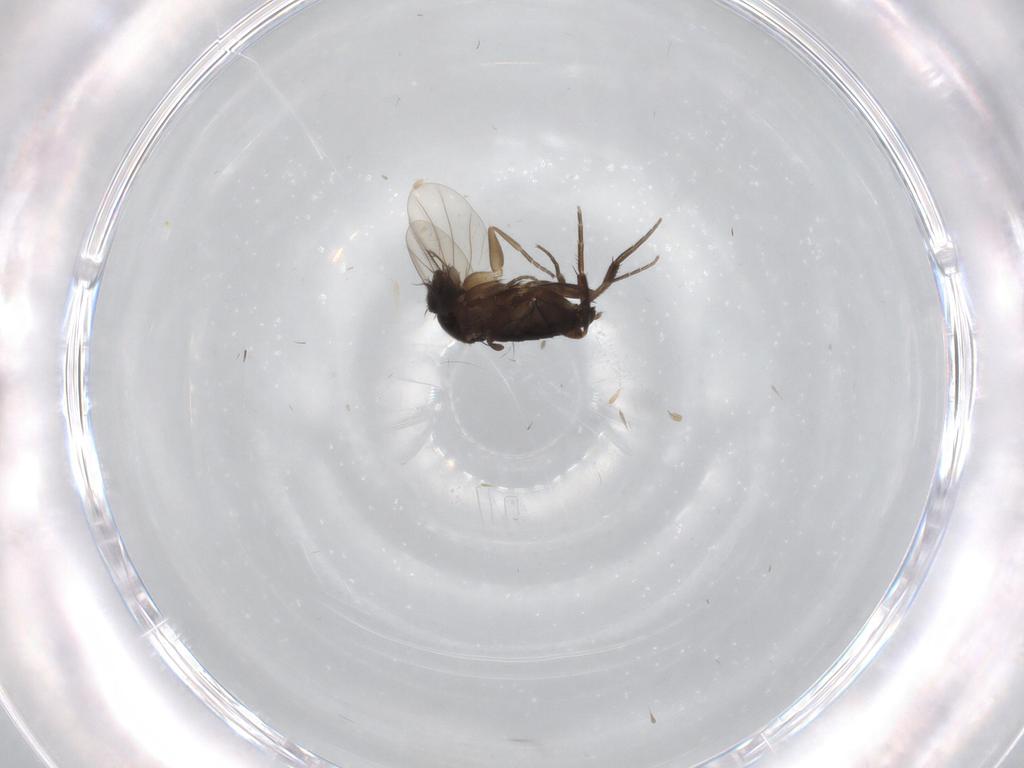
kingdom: Animalia
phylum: Arthropoda
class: Insecta
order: Diptera
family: Phoridae
